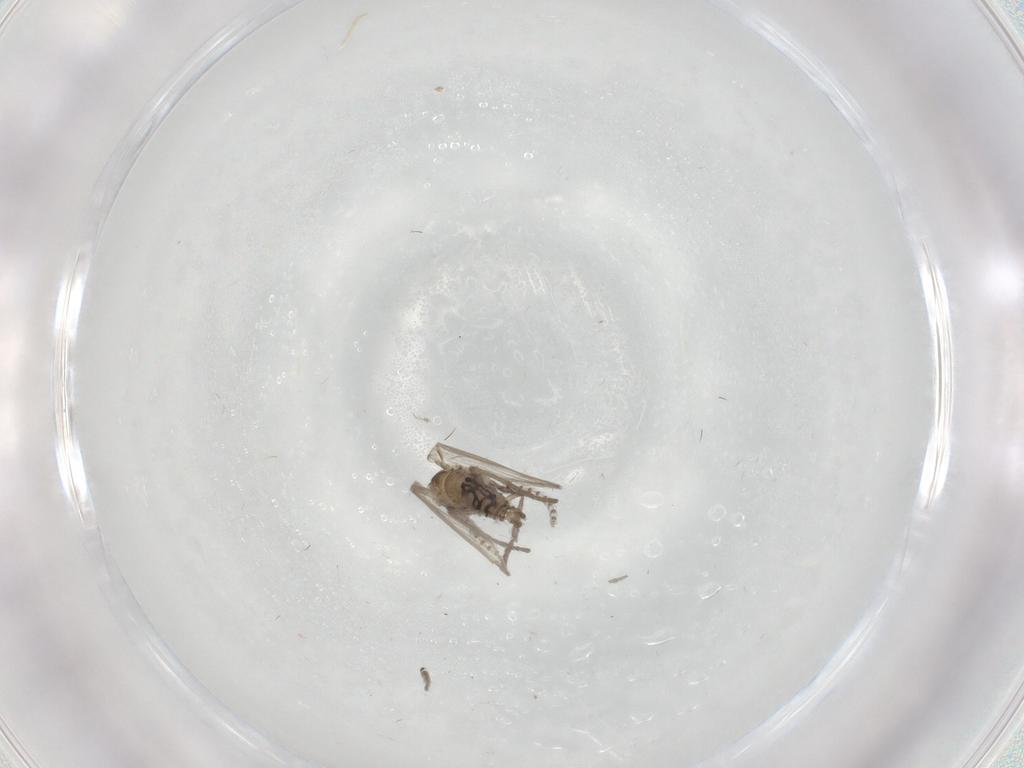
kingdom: Animalia
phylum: Arthropoda
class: Insecta
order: Diptera
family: Psychodidae
